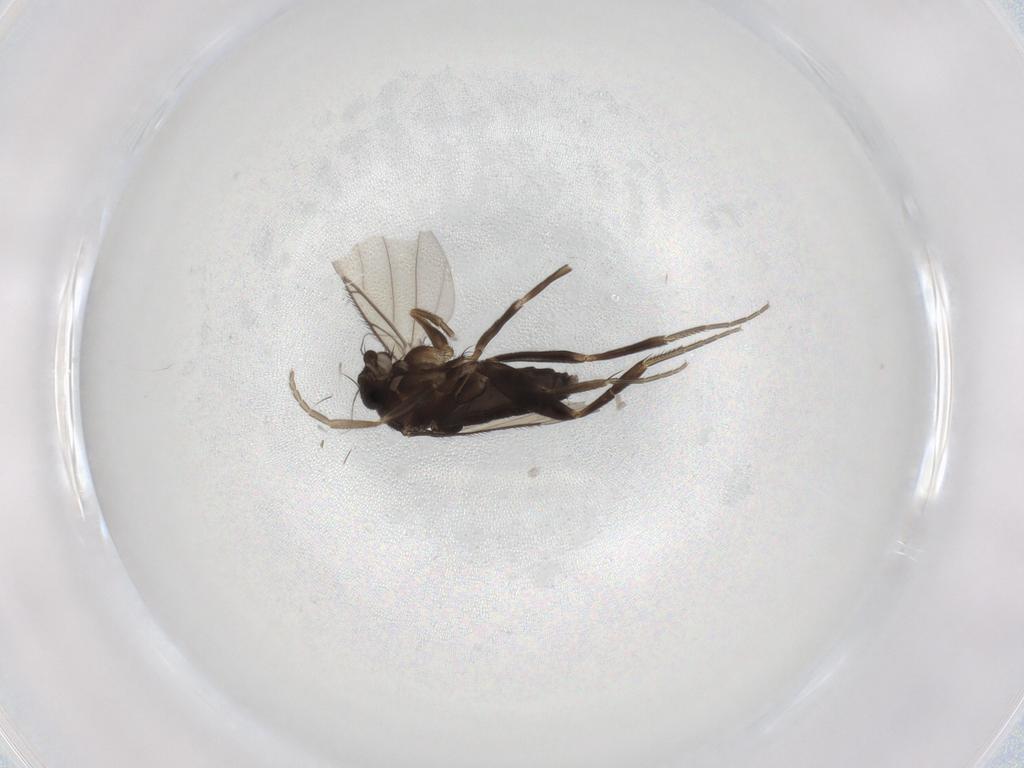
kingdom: Animalia
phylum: Arthropoda
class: Insecta
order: Diptera
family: Phoridae
